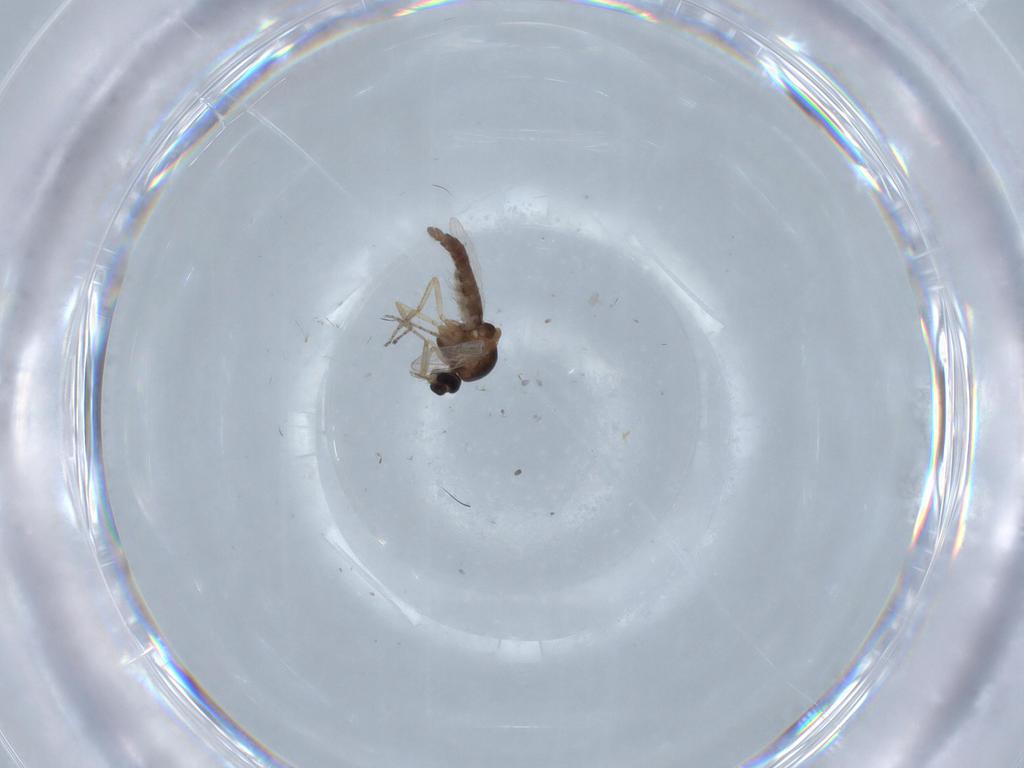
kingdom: Animalia
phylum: Arthropoda
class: Insecta
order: Diptera
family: Ceratopogonidae
